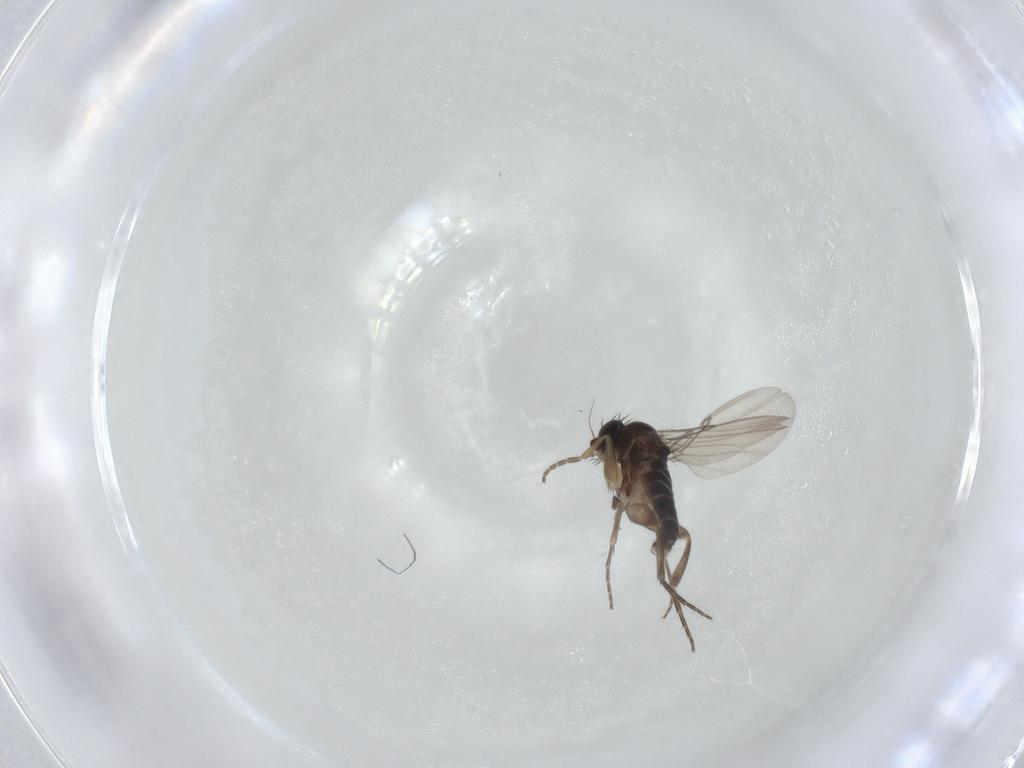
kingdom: Animalia
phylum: Arthropoda
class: Insecta
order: Diptera
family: Phoridae
